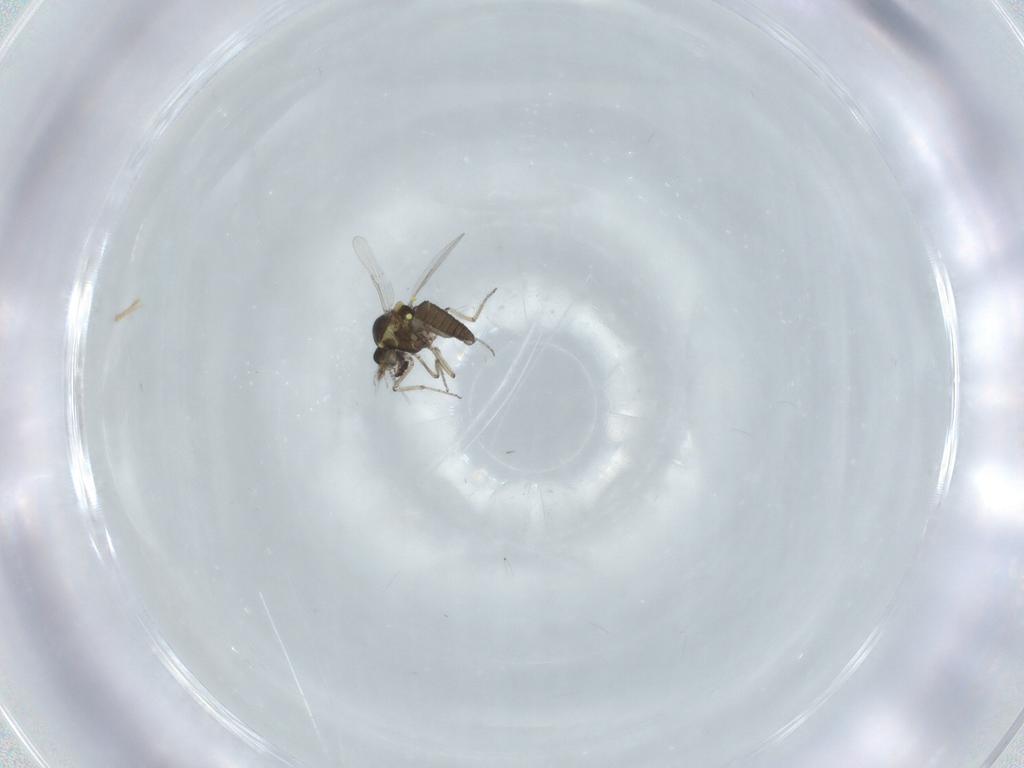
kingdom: Animalia
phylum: Arthropoda
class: Insecta
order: Diptera
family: Ceratopogonidae
